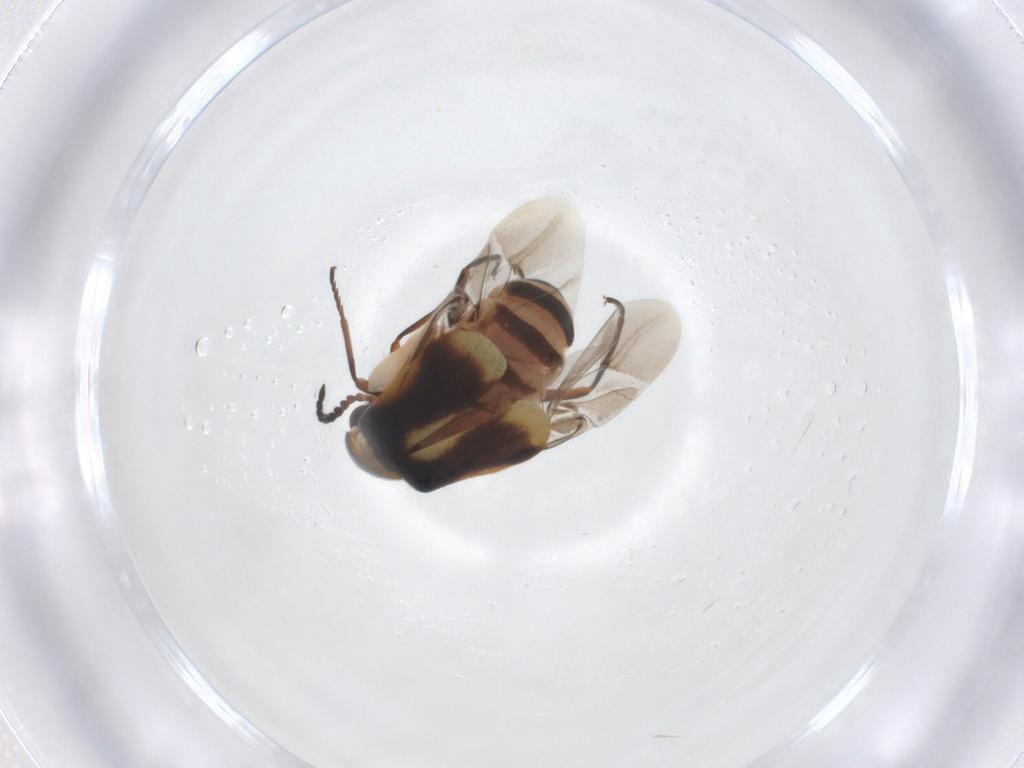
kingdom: Animalia
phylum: Arthropoda
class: Insecta
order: Coleoptera
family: Melyridae
